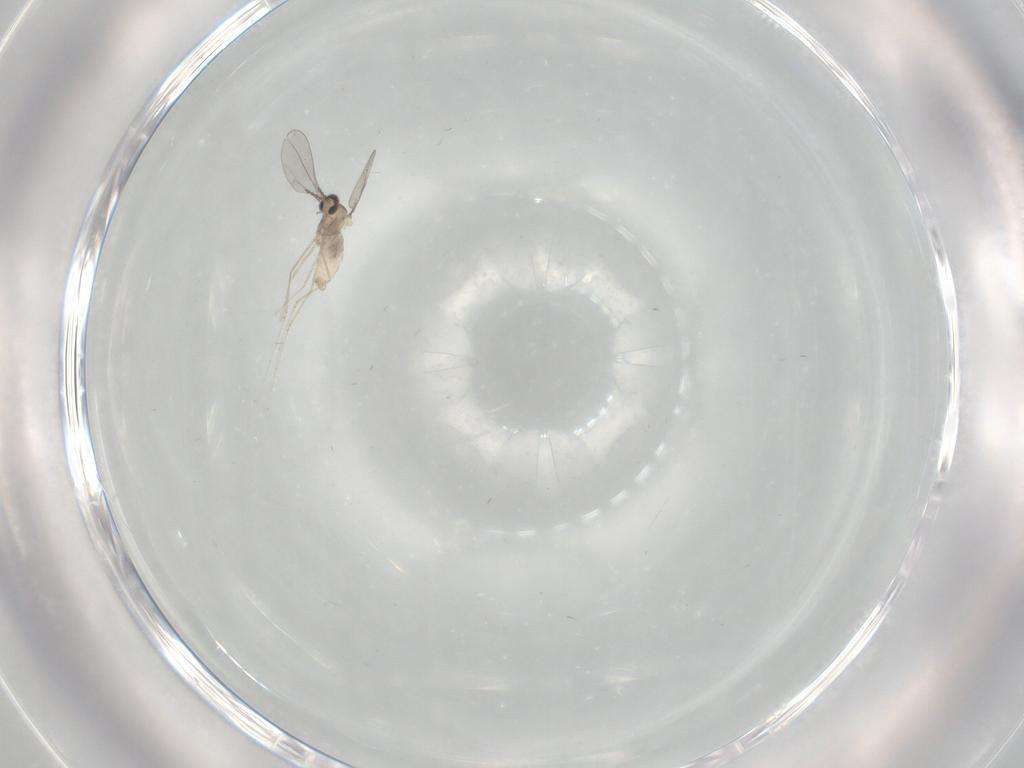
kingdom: Animalia
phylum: Arthropoda
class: Insecta
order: Diptera
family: Cecidomyiidae
